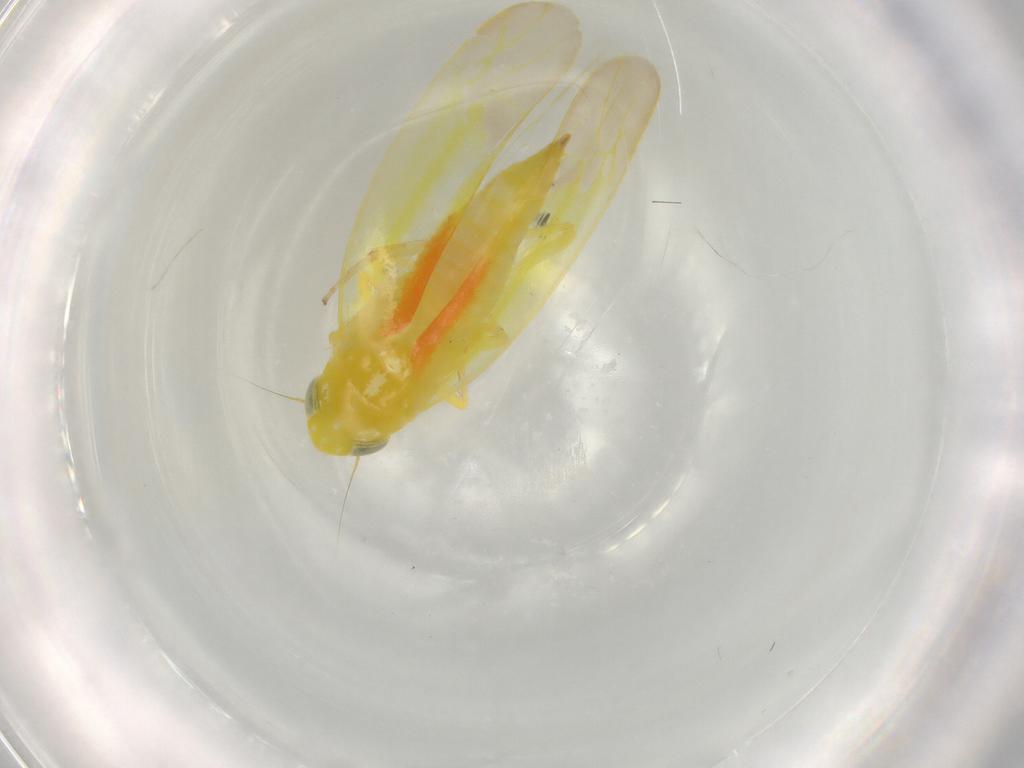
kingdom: Animalia
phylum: Arthropoda
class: Insecta
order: Hemiptera
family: Cicadellidae
